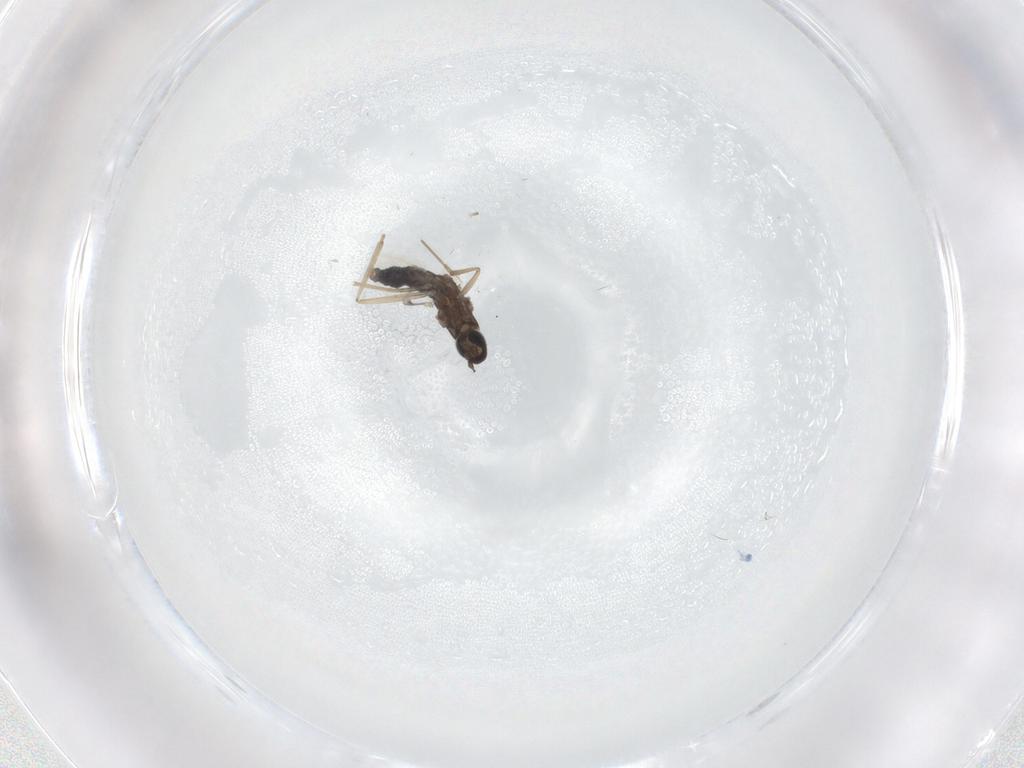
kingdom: Animalia
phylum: Arthropoda
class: Insecta
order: Diptera
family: Cecidomyiidae
